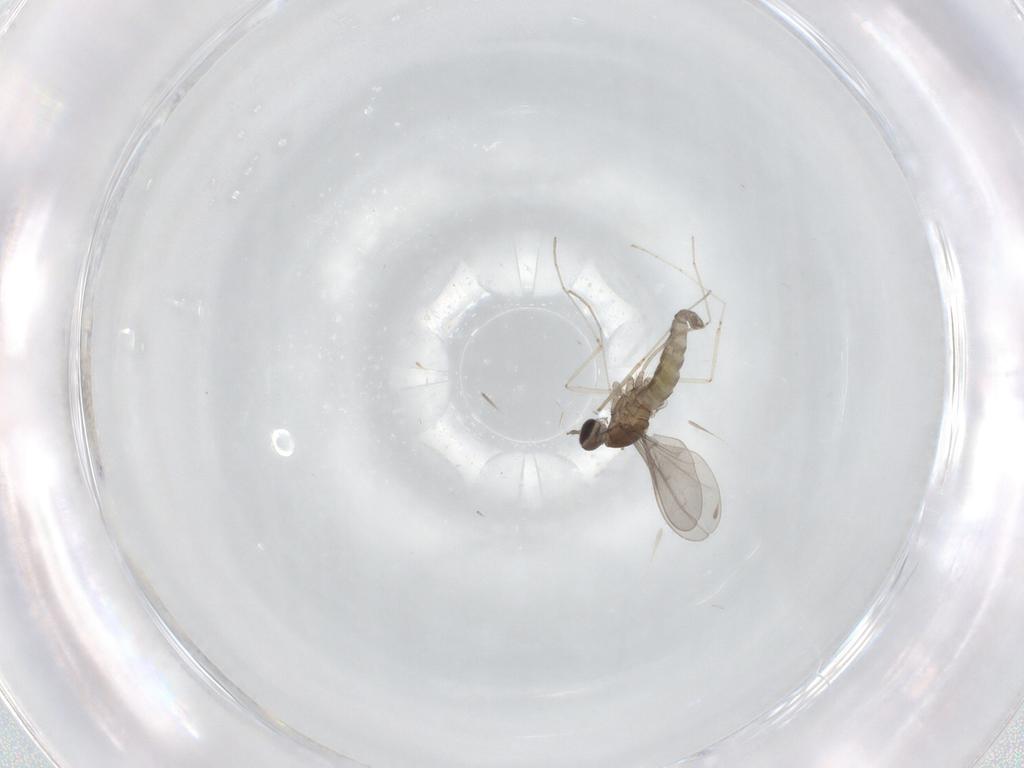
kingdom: Animalia
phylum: Arthropoda
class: Insecta
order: Diptera
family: Cecidomyiidae
